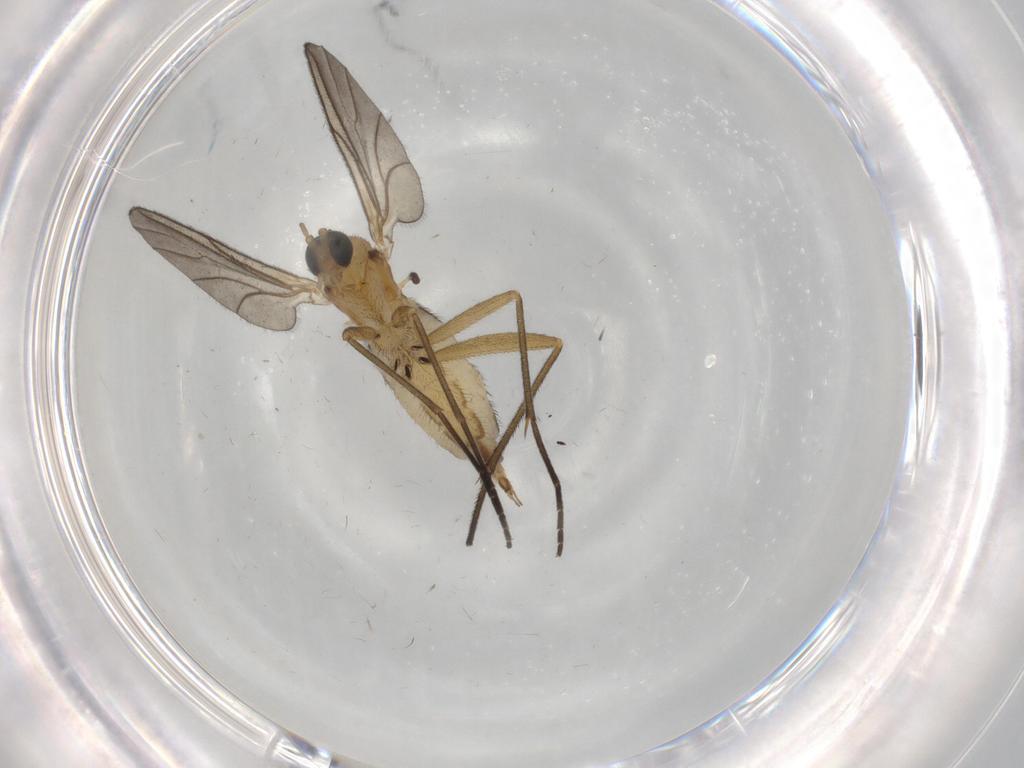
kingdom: Animalia
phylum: Arthropoda
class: Insecta
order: Diptera
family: Sciaridae
